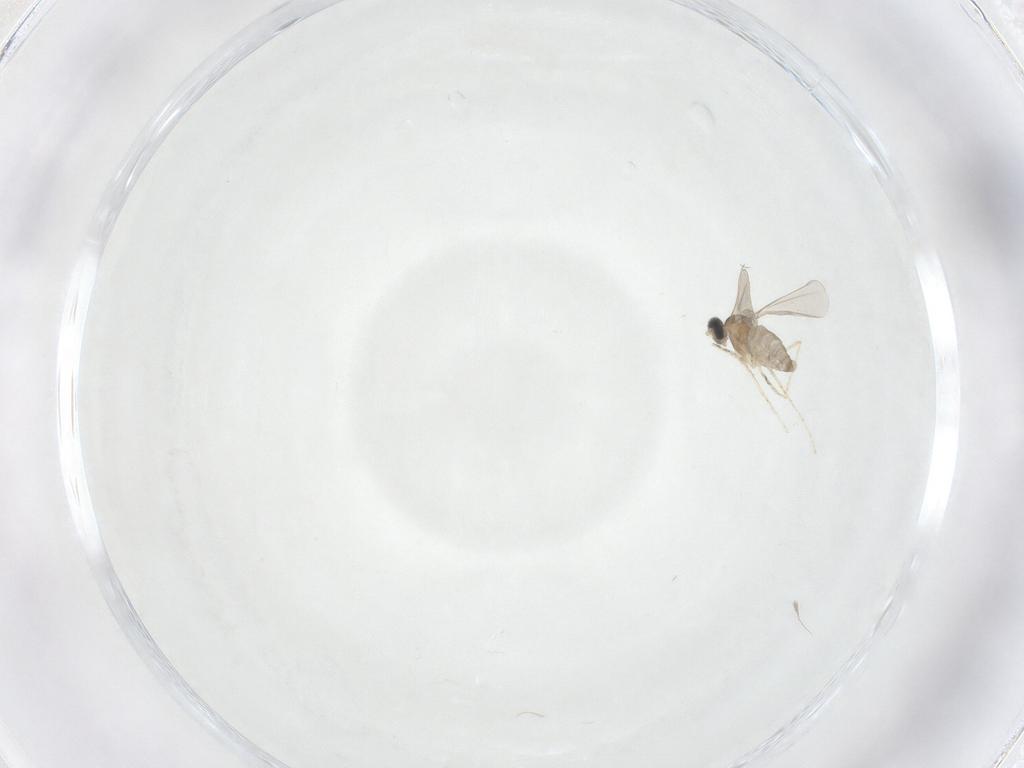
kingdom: Animalia
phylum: Arthropoda
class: Insecta
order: Diptera
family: Cecidomyiidae
